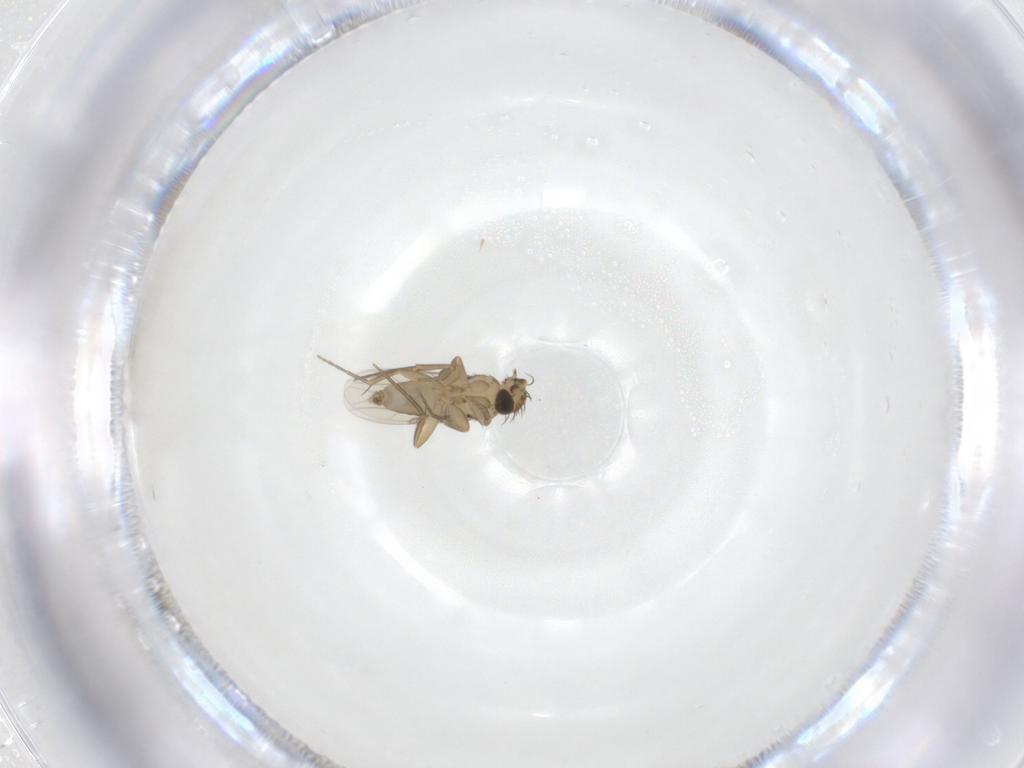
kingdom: Animalia
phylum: Arthropoda
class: Insecta
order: Diptera
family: Phoridae
